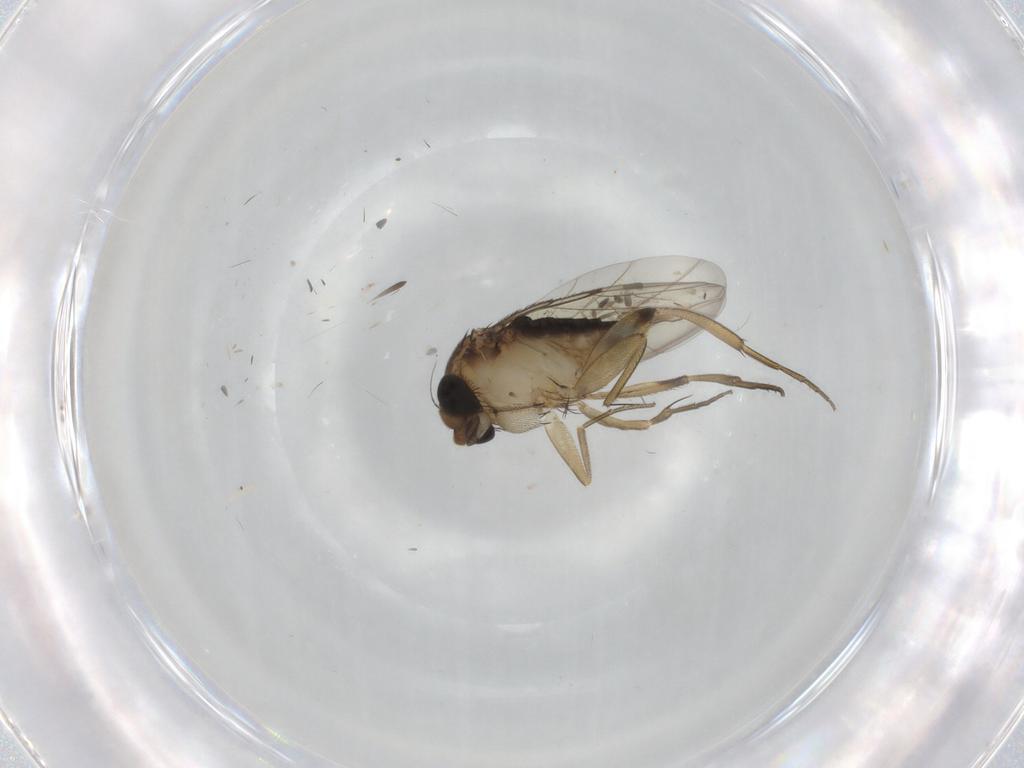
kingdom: Animalia
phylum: Arthropoda
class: Insecta
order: Diptera
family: Phoridae
